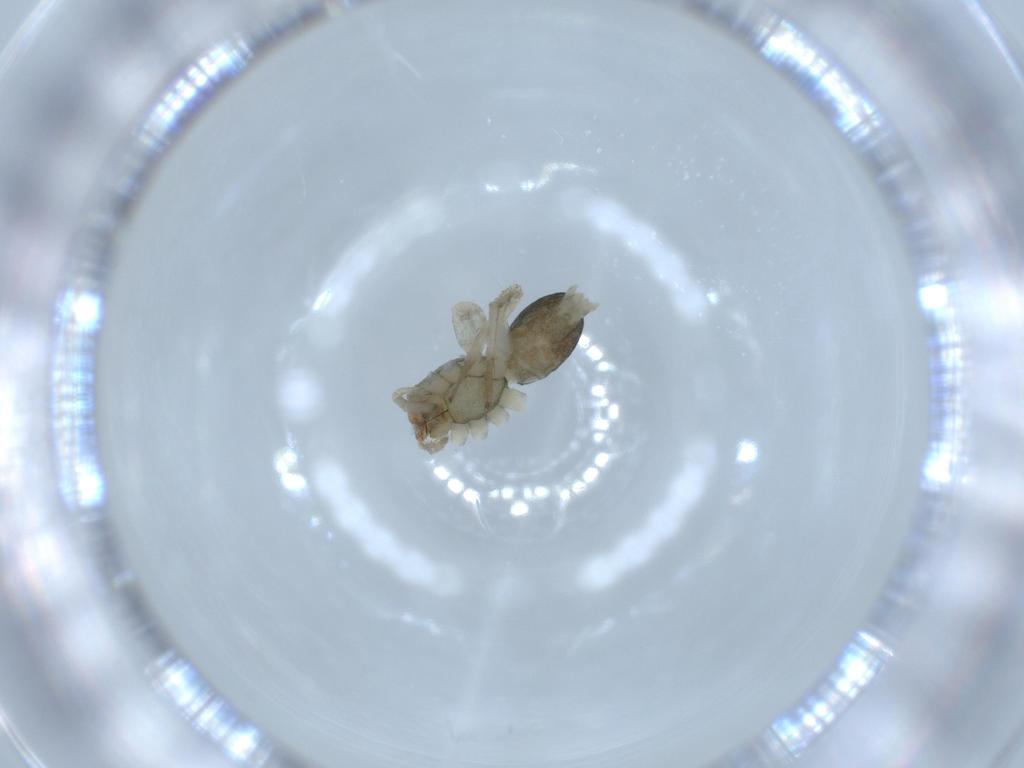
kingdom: Animalia
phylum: Arthropoda
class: Arachnida
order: Araneae
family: Anyphaenidae
